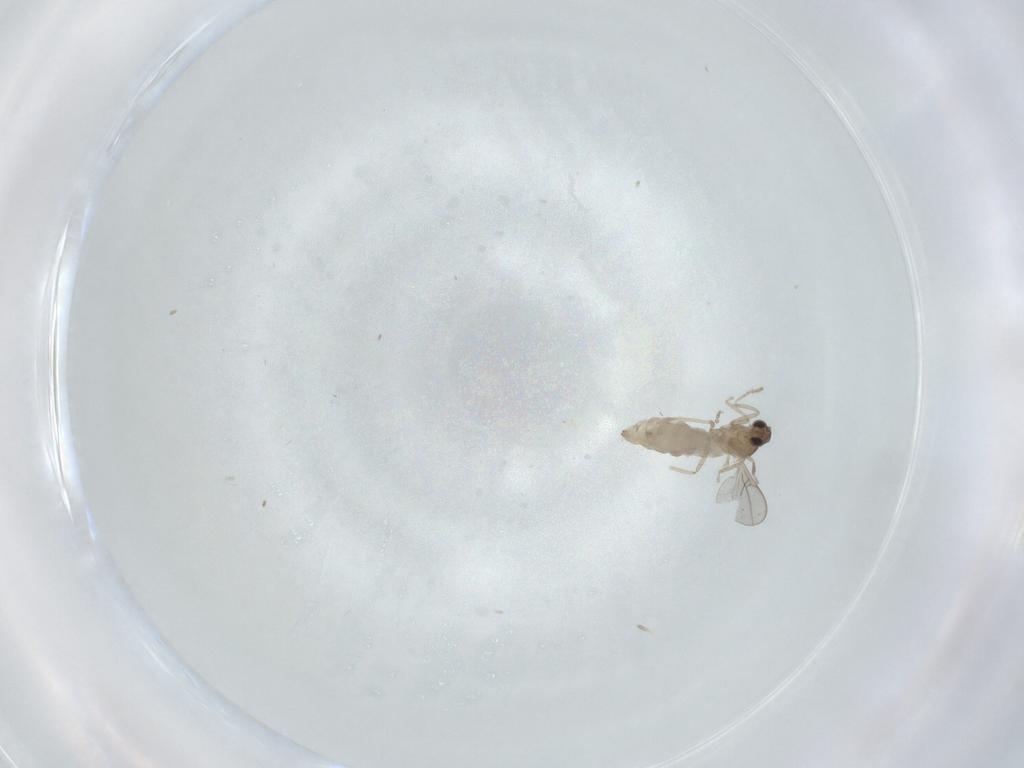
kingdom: Animalia
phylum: Arthropoda
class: Insecta
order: Diptera
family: Cecidomyiidae
